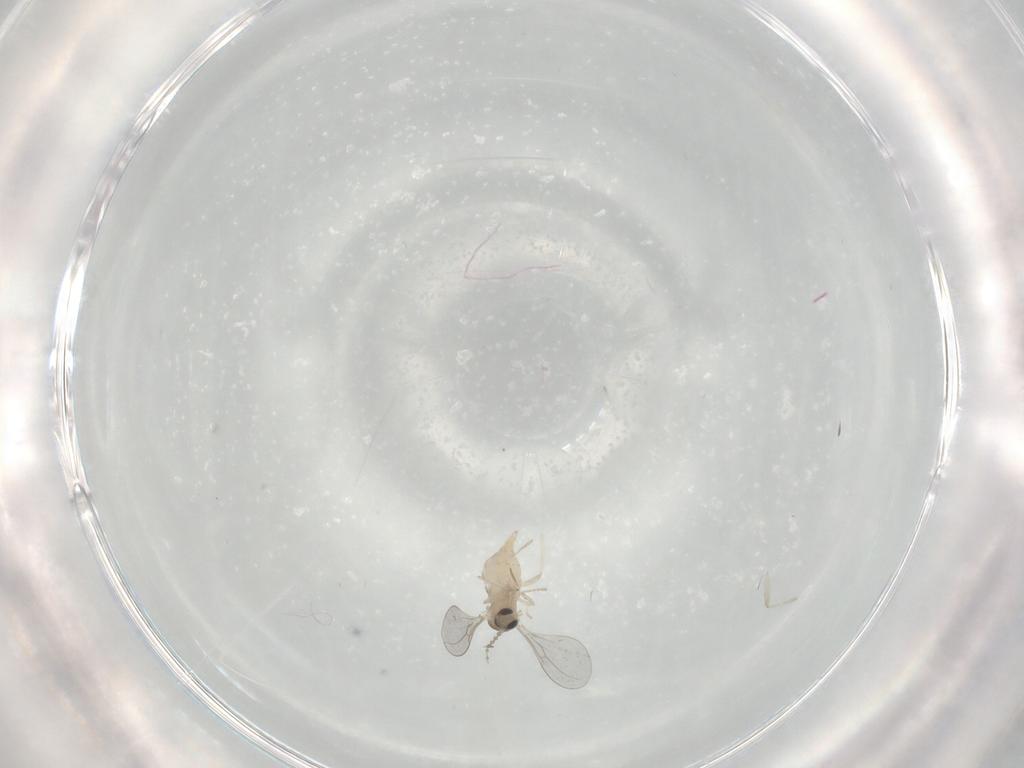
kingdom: Animalia
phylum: Arthropoda
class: Insecta
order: Diptera
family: Cecidomyiidae
